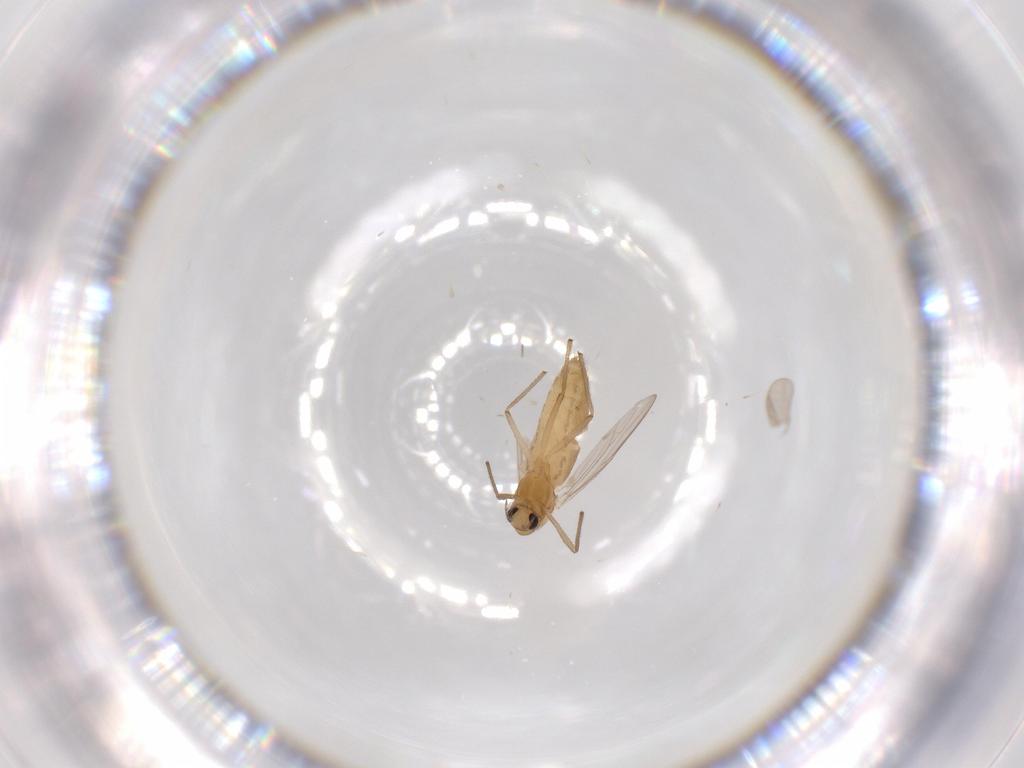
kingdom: Animalia
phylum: Arthropoda
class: Insecta
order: Diptera
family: Chironomidae
